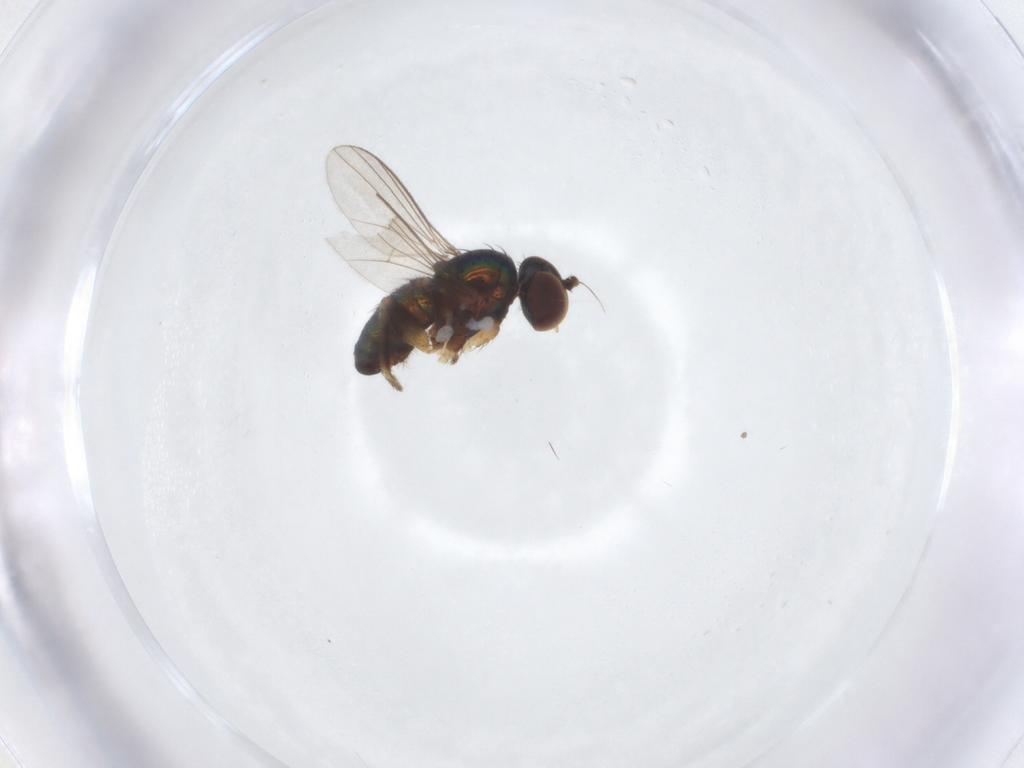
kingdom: Animalia
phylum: Arthropoda
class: Insecta
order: Diptera
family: Dolichopodidae
